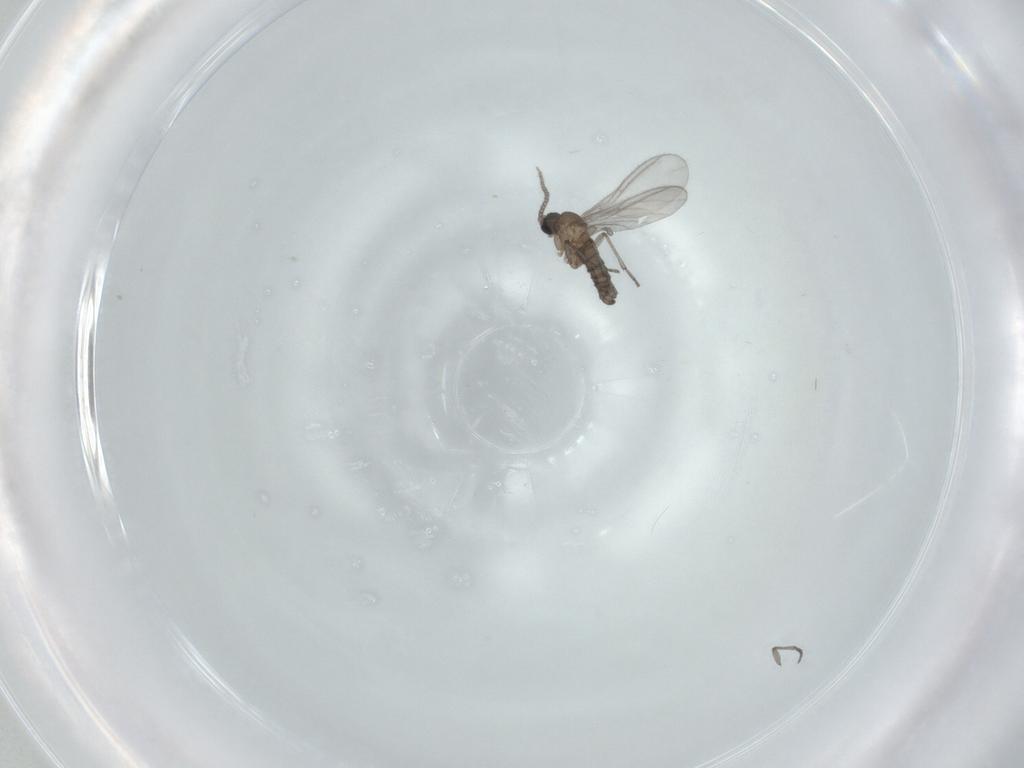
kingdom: Animalia
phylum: Arthropoda
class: Insecta
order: Diptera
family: Sciaridae
